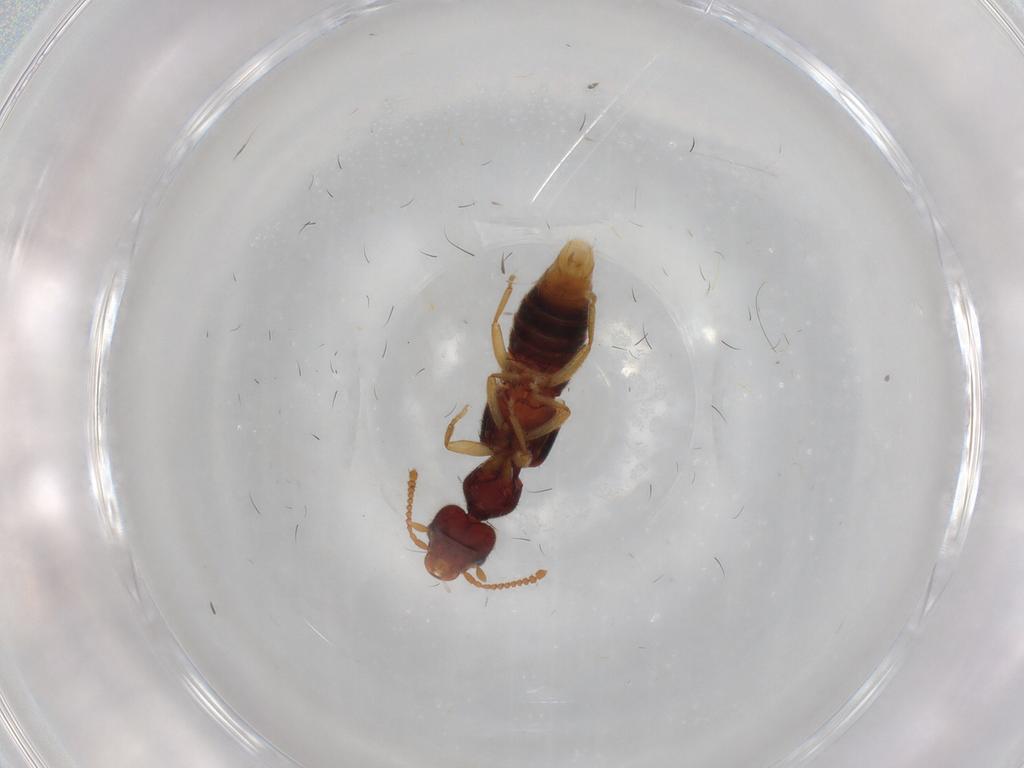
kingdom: Animalia
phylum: Arthropoda
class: Insecta
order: Coleoptera
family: Staphylinidae
